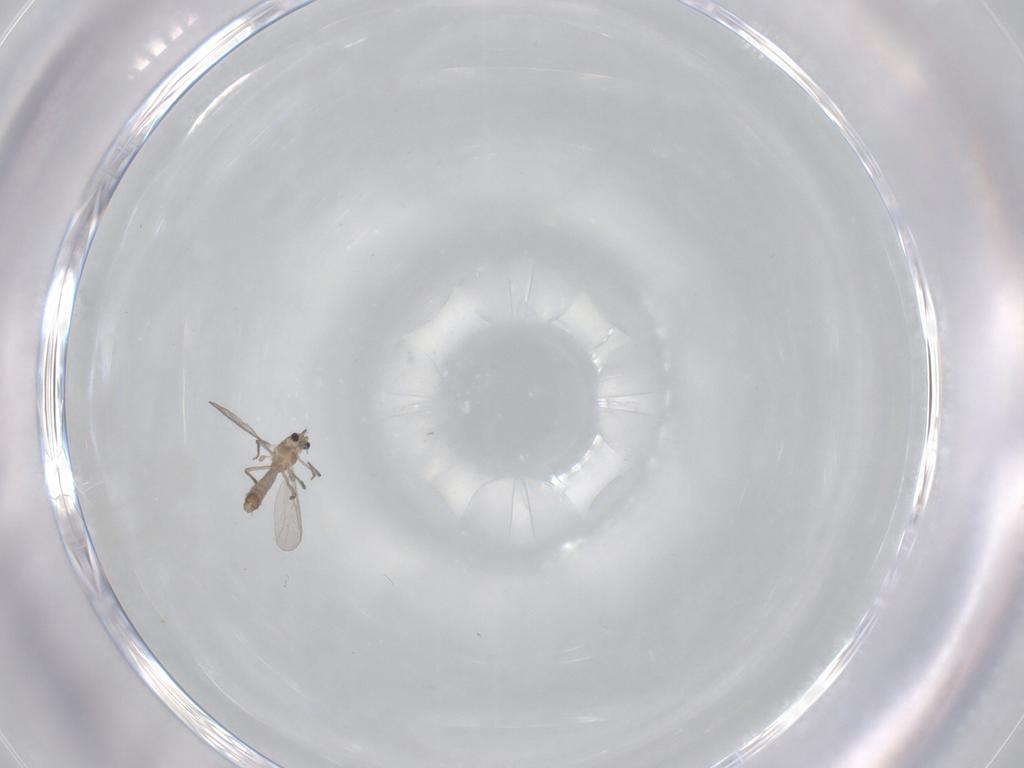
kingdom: Animalia
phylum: Arthropoda
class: Insecta
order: Diptera
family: Chironomidae
